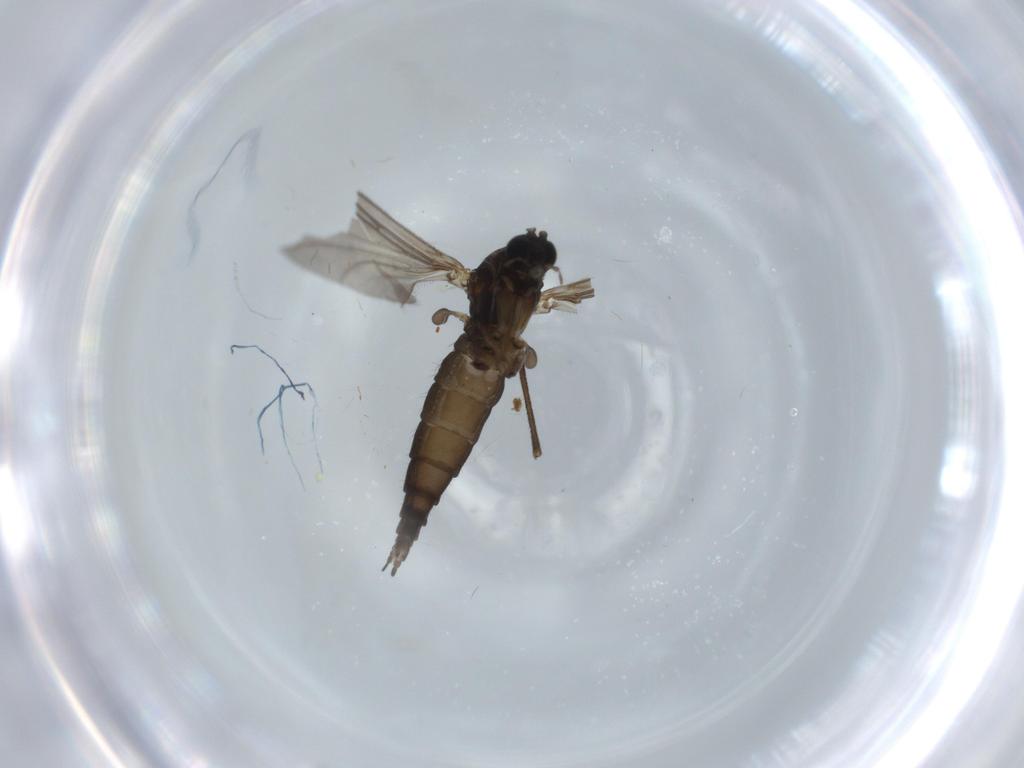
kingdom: Animalia
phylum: Arthropoda
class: Insecta
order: Diptera
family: Sciaridae
